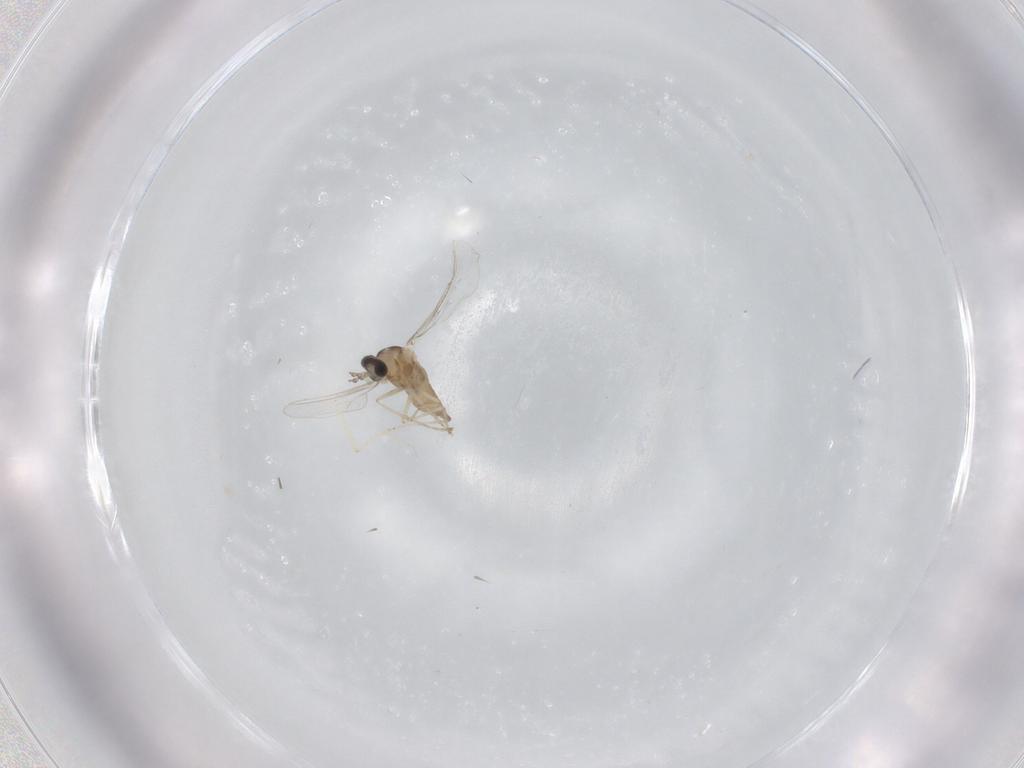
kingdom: Animalia
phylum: Arthropoda
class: Insecta
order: Diptera
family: Cecidomyiidae
